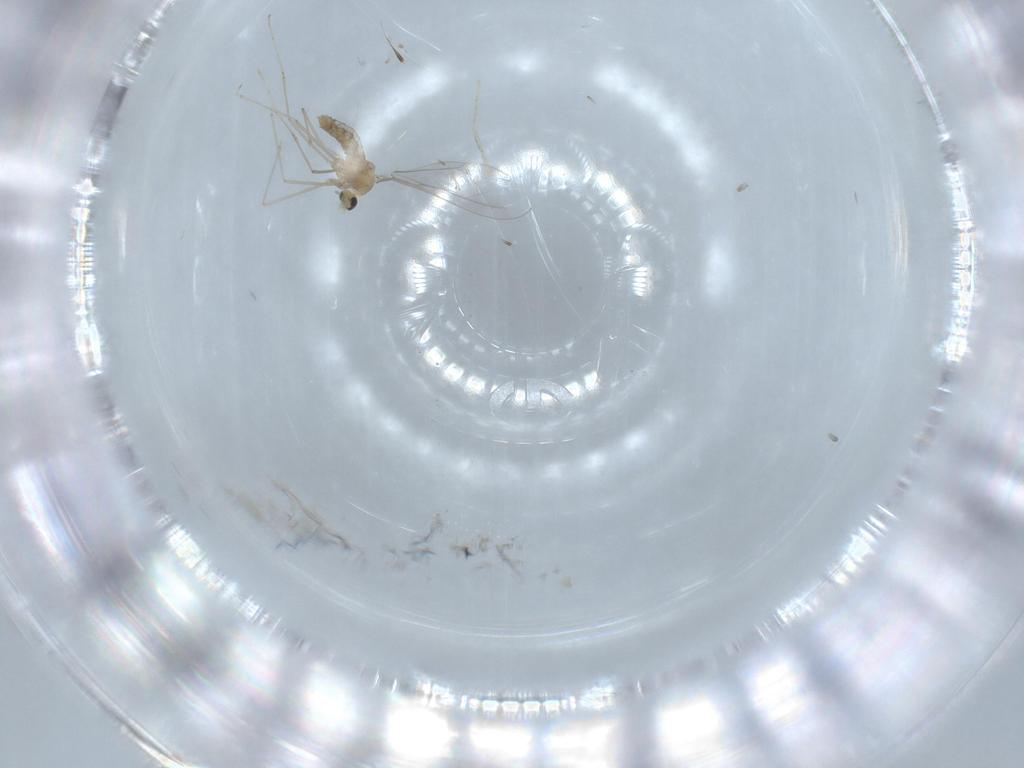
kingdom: Animalia
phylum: Arthropoda
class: Insecta
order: Diptera
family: Cecidomyiidae
